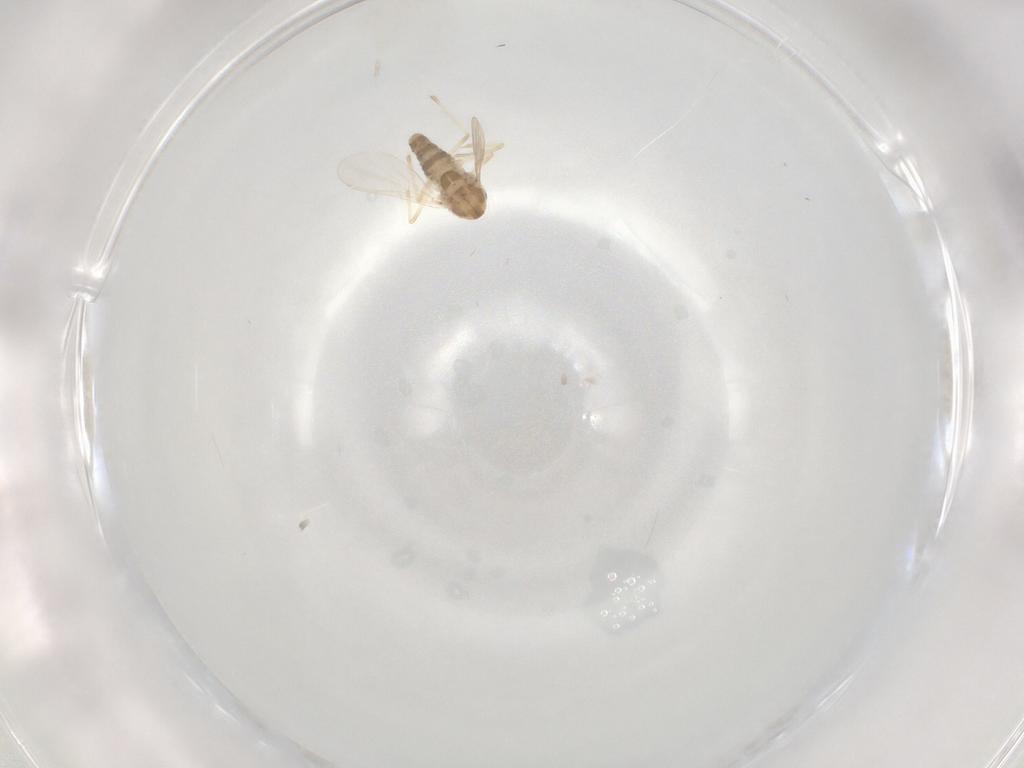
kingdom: Animalia
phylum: Arthropoda
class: Insecta
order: Diptera
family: Chironomidae
